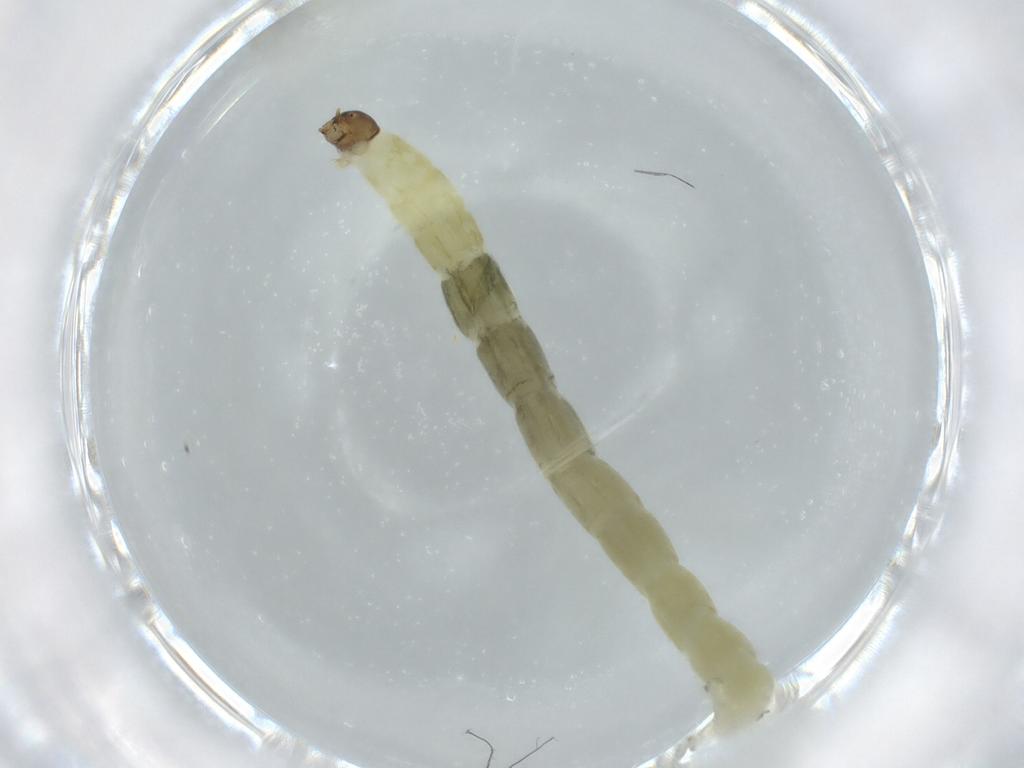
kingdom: Animalia
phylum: Arthropoda
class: Insecta
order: Diptera
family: Chironomidae
